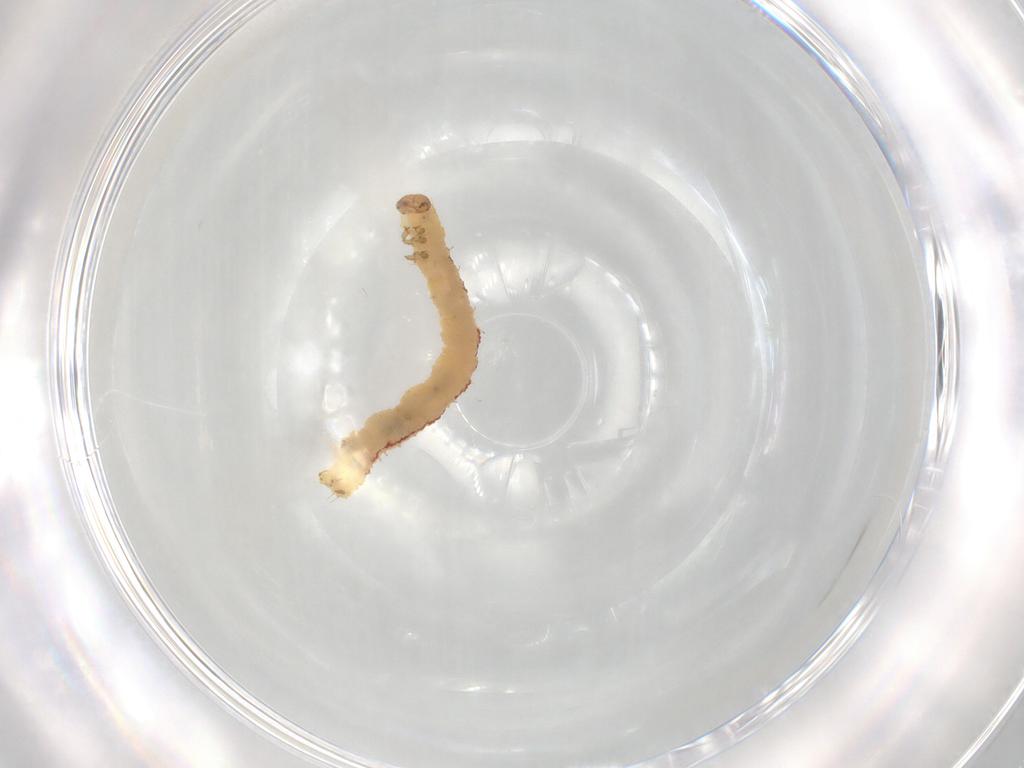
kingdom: Animalia
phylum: Arthropoda
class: Insecta
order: Lepidoptera
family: Geometridae
